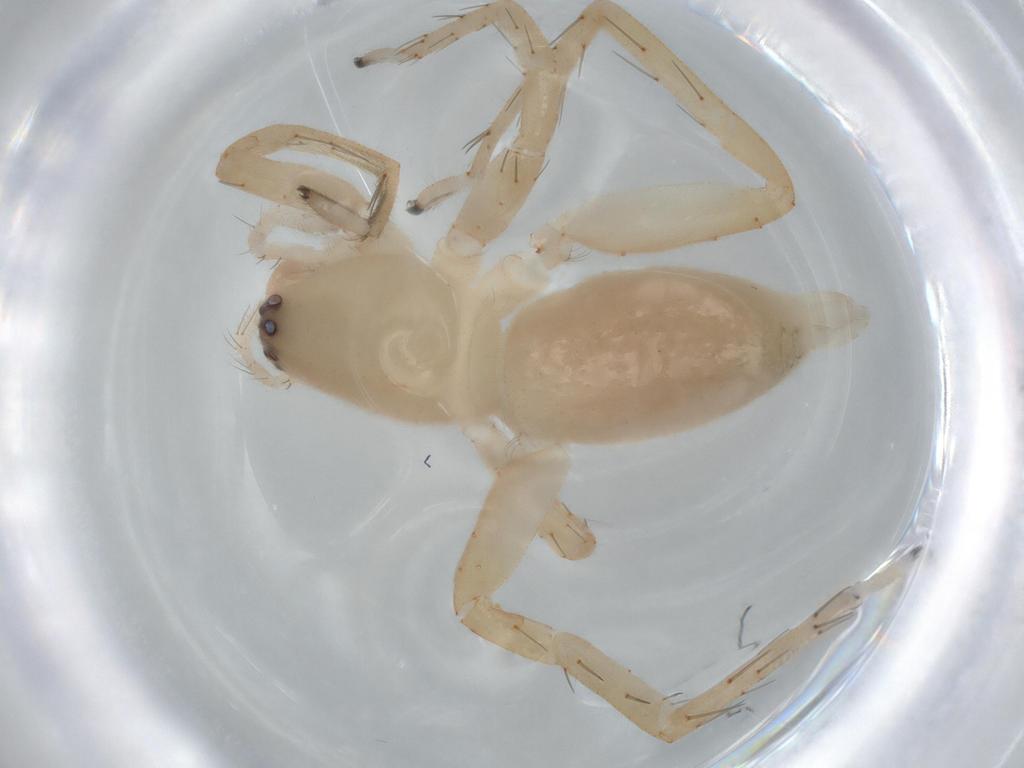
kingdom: Animalia
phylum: Arthropoda
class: Arachnida
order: Araneae
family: Clubionidae
